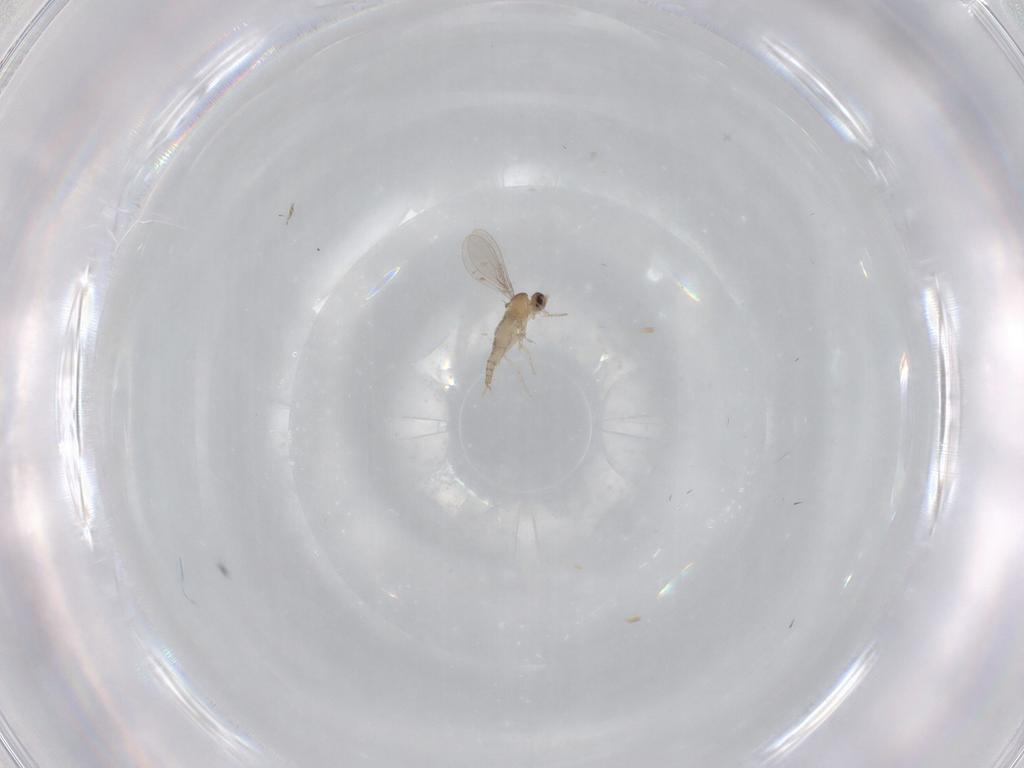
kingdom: Animalia
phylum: Arthropoda
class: Insecta
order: Diptera
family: Cecidomyiidae
